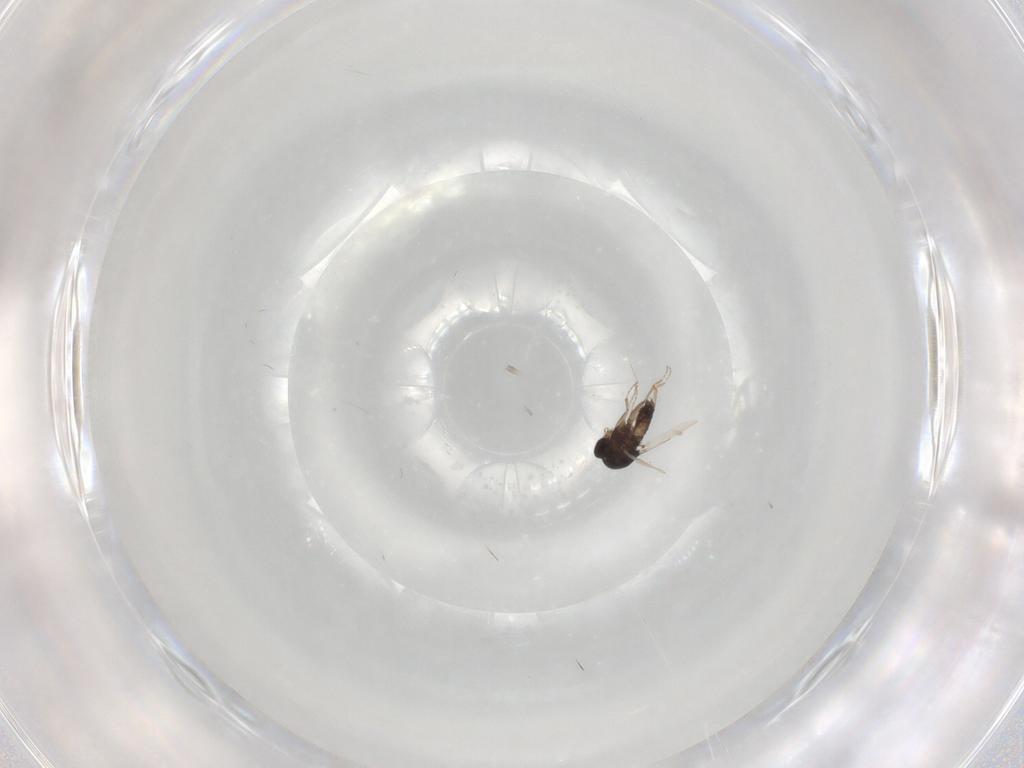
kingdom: Animalia
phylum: Arthropoda
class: Insecta
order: Diptera
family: Ceratopogonidae
